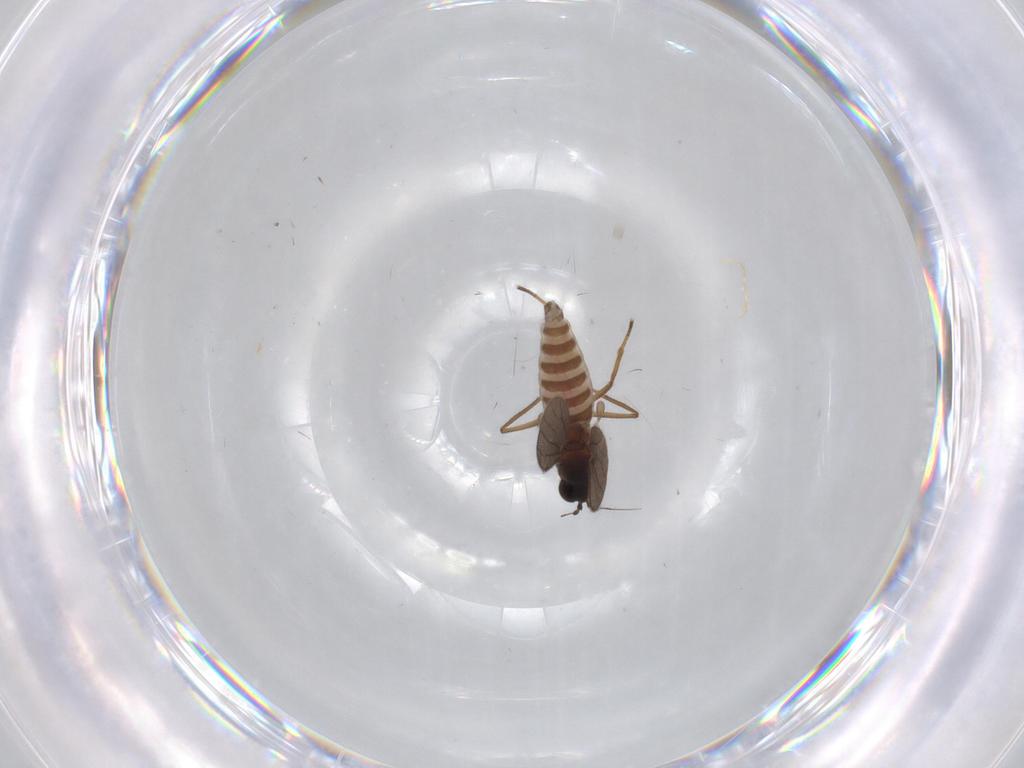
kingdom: Animalia
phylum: Arthropoda
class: Insecta
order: Diptera
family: Empididae
